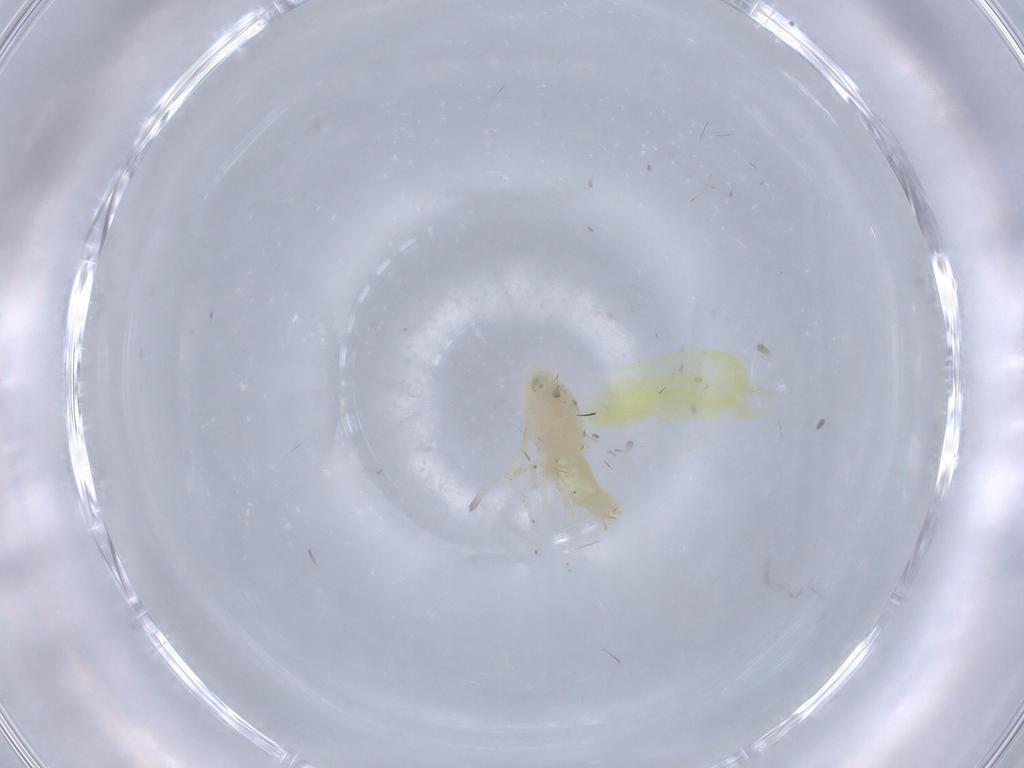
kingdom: Animalia
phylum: Arthropoda
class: Insecta
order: Hemiptera
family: Cicadellidae
